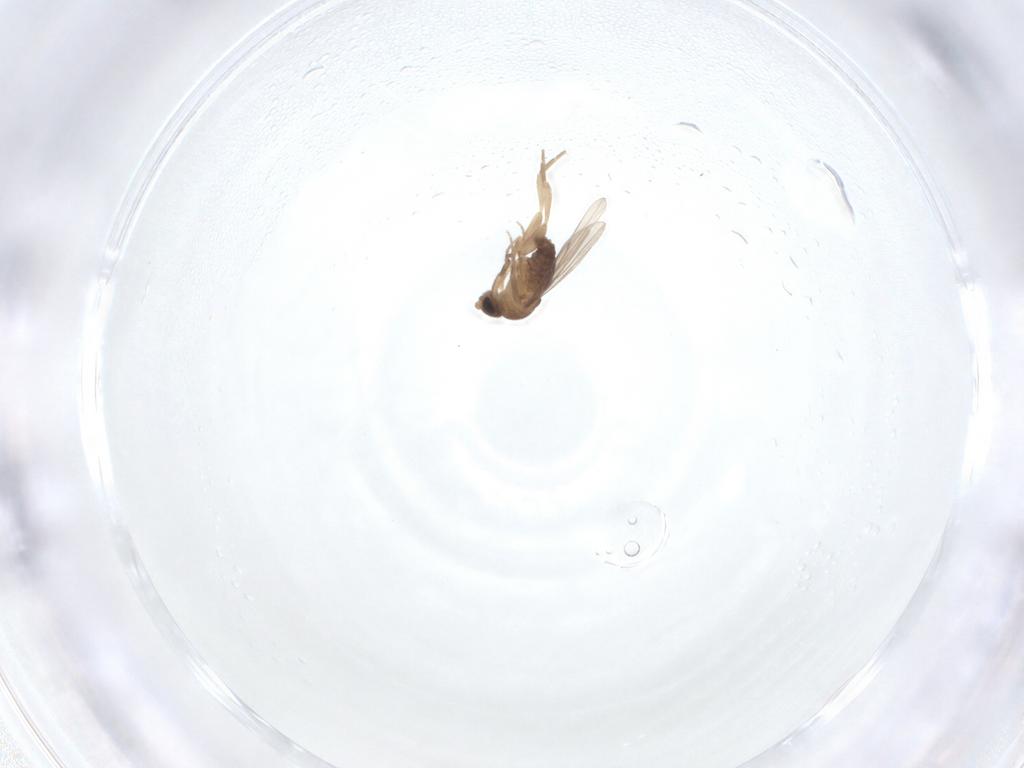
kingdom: Animalia
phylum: Arthropoda
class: Insecta
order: Diptera
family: Phoridae
